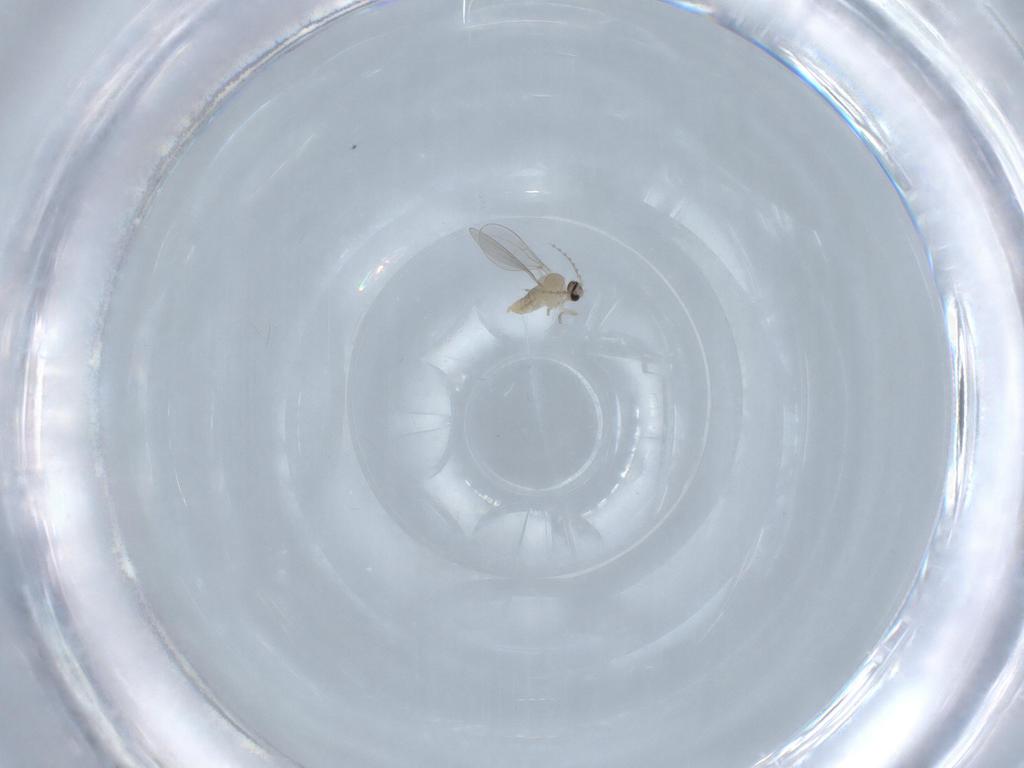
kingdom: Animalia
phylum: Arthropoda
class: Insecta
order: Diptera
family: Cecidomyiidae
